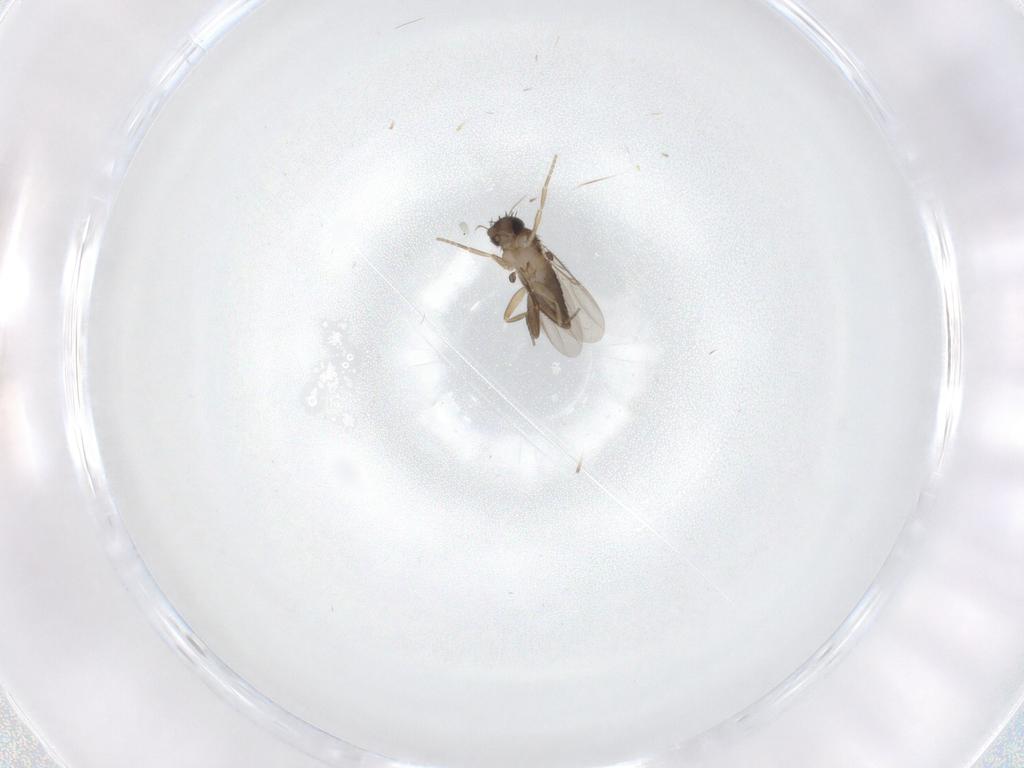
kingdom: Animalia
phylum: Arthropoda
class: Insecta
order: Diptera
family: Phoridae
